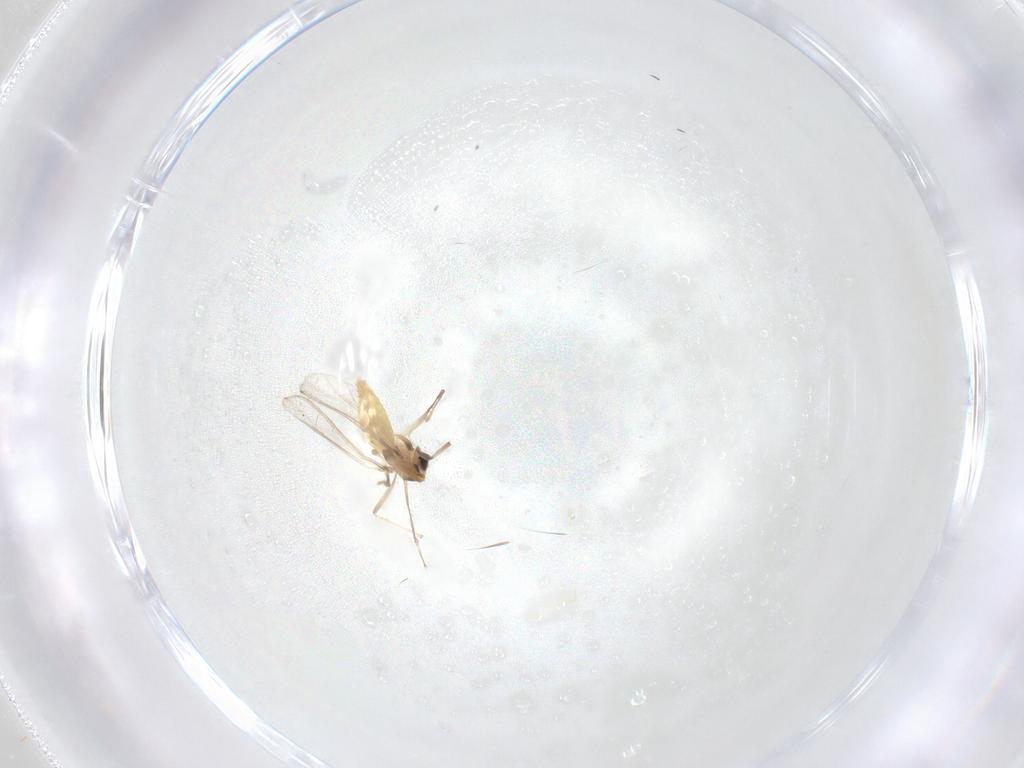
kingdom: Animalia
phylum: Arthropoda
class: Insecta
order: Diptera
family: Chironomidae
